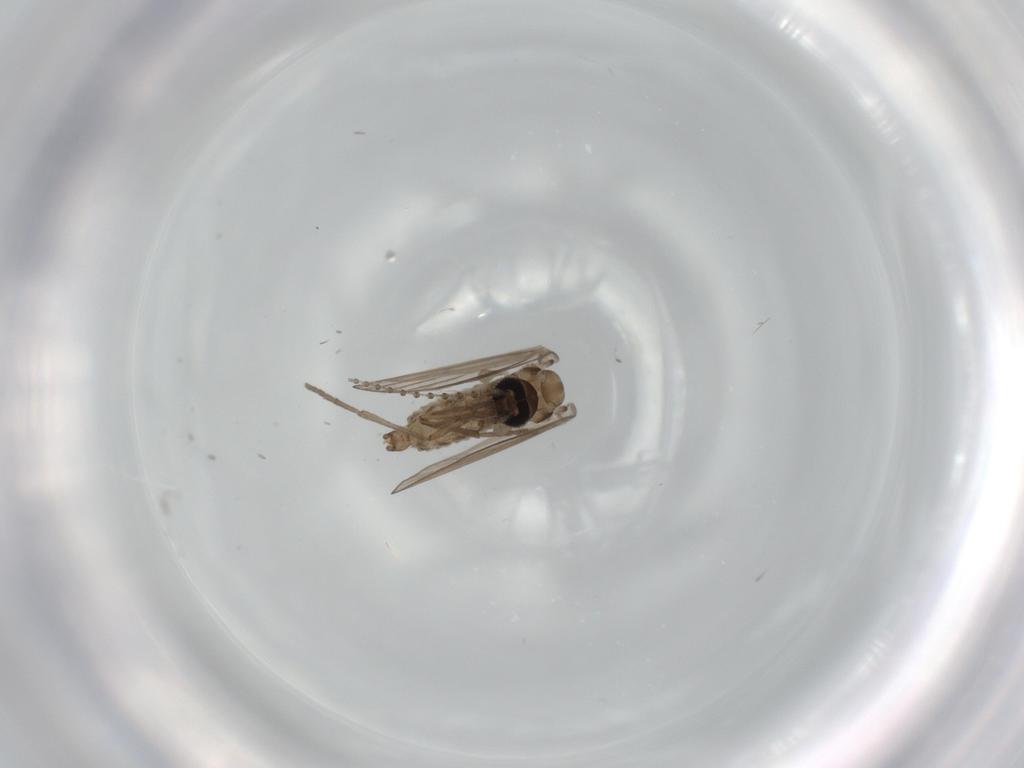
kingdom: Animalia
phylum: Arthropoda
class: Insecta
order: Diptera
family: Psychodidae
